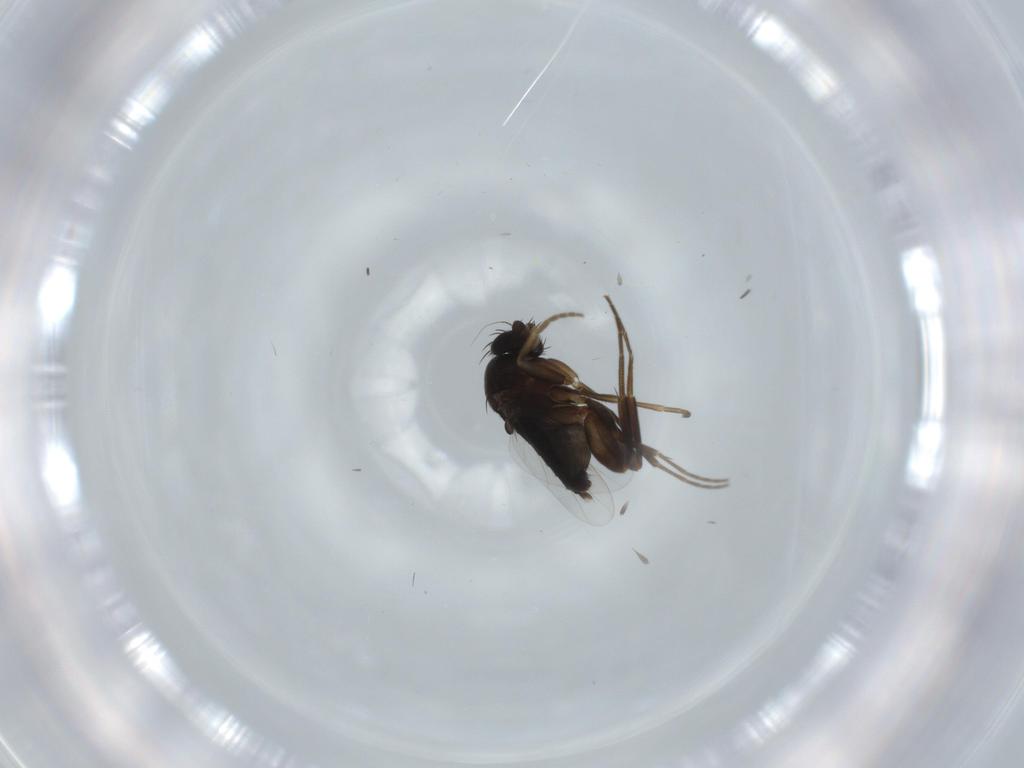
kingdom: Animalia
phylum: Arthropoda
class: Insecta
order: Diptera
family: Phoridae
